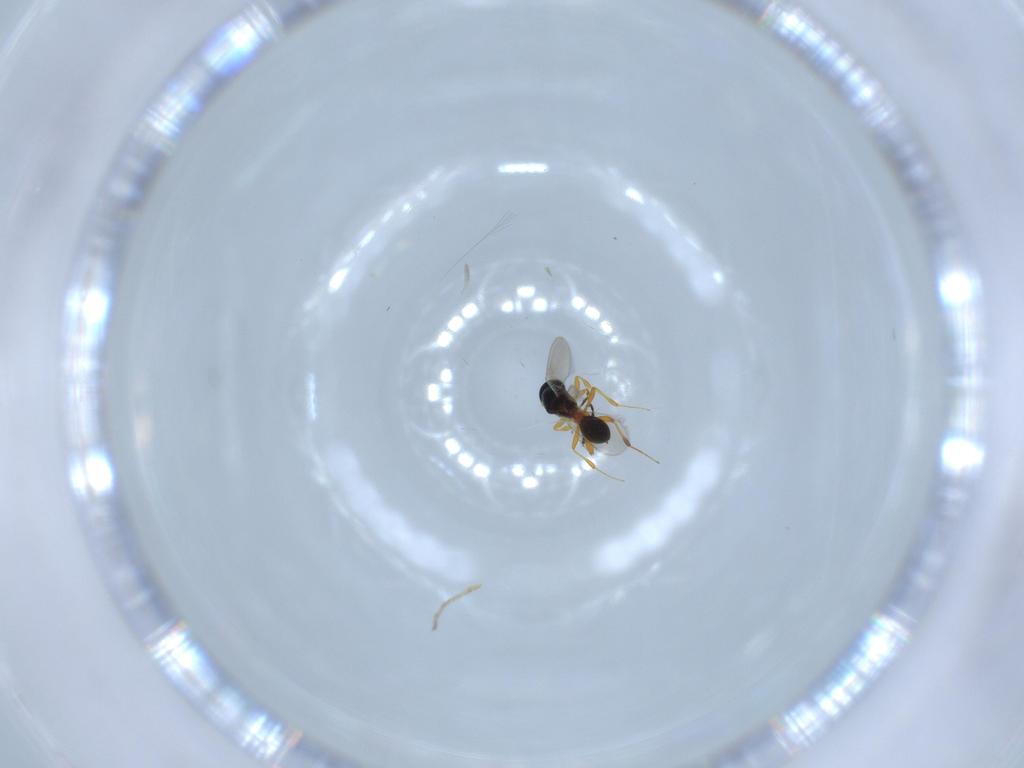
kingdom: Animalia
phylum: Arthropoda
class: Insecta
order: Hymenoptera
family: Platygastridae
